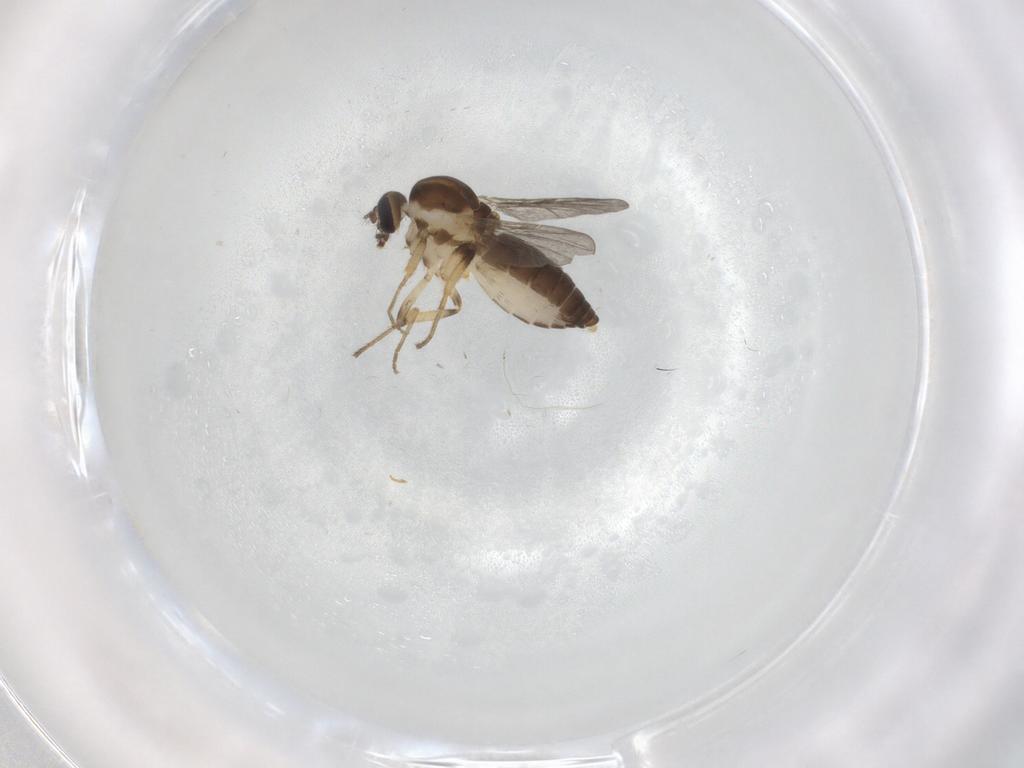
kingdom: Animalia
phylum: Arthropoda
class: Insecta
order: Diptera
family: Ceratopogonidae
